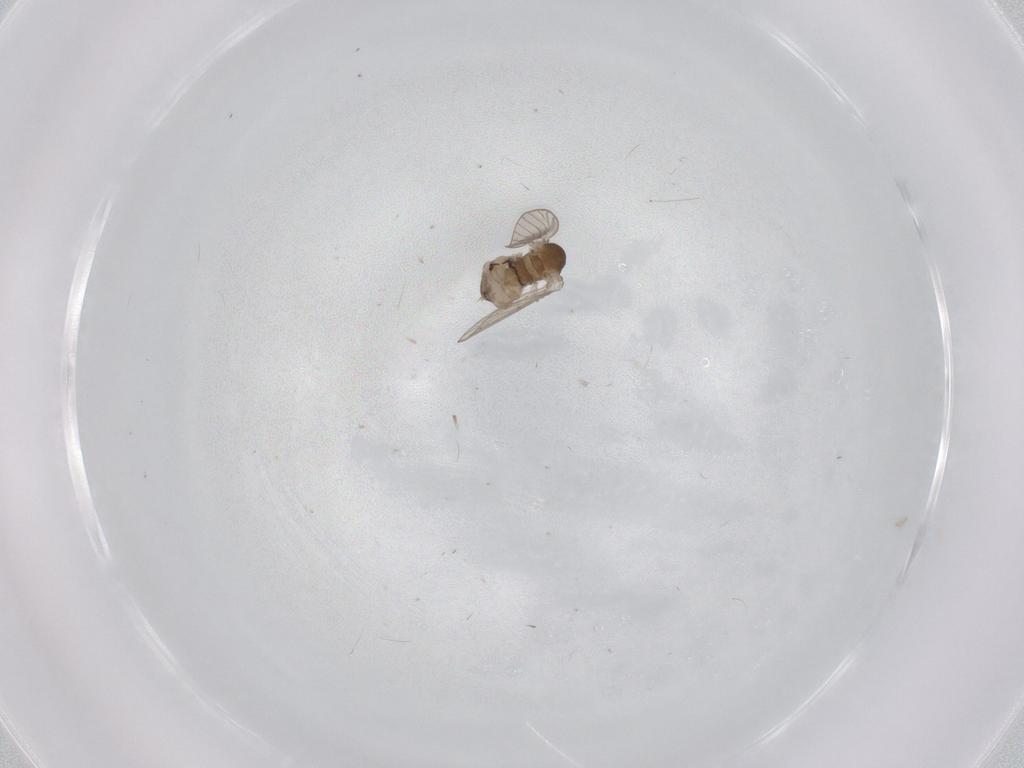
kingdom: Animalia
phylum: Arthropoda
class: Insecta
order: Diptera
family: Psychodidae
